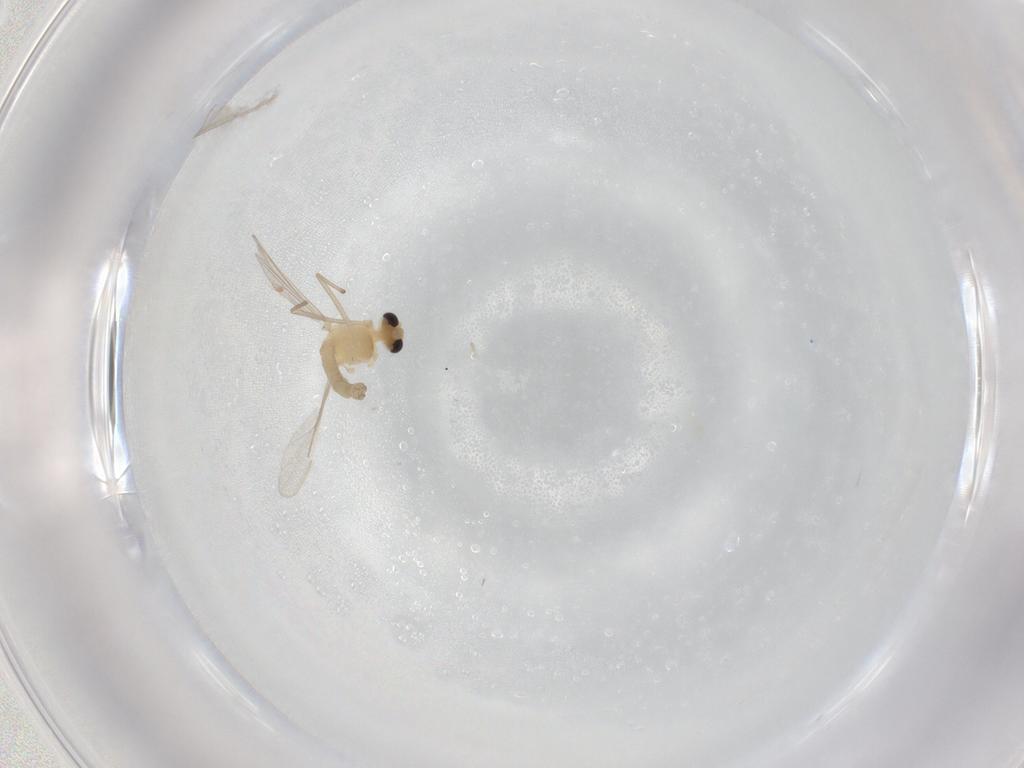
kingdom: Animalia
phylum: Arthropoda
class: Insecta
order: Diptera
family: Chironomidae
